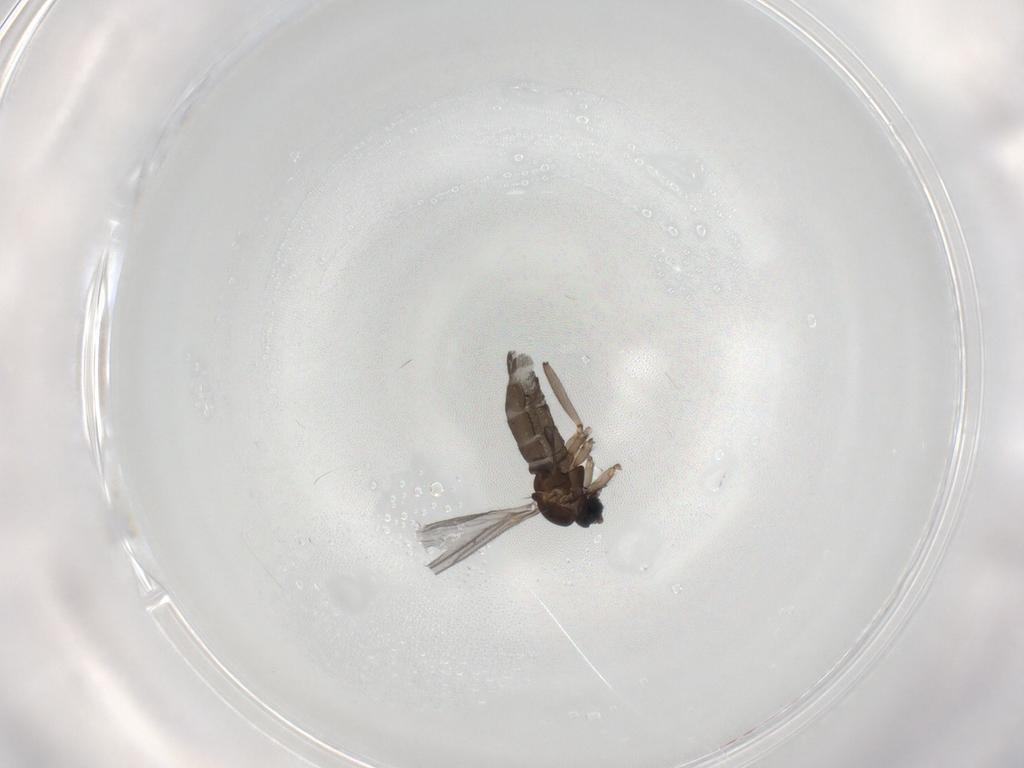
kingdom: Animalia
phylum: Arthropoda
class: Insecta
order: Diptera
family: Sciaridae
